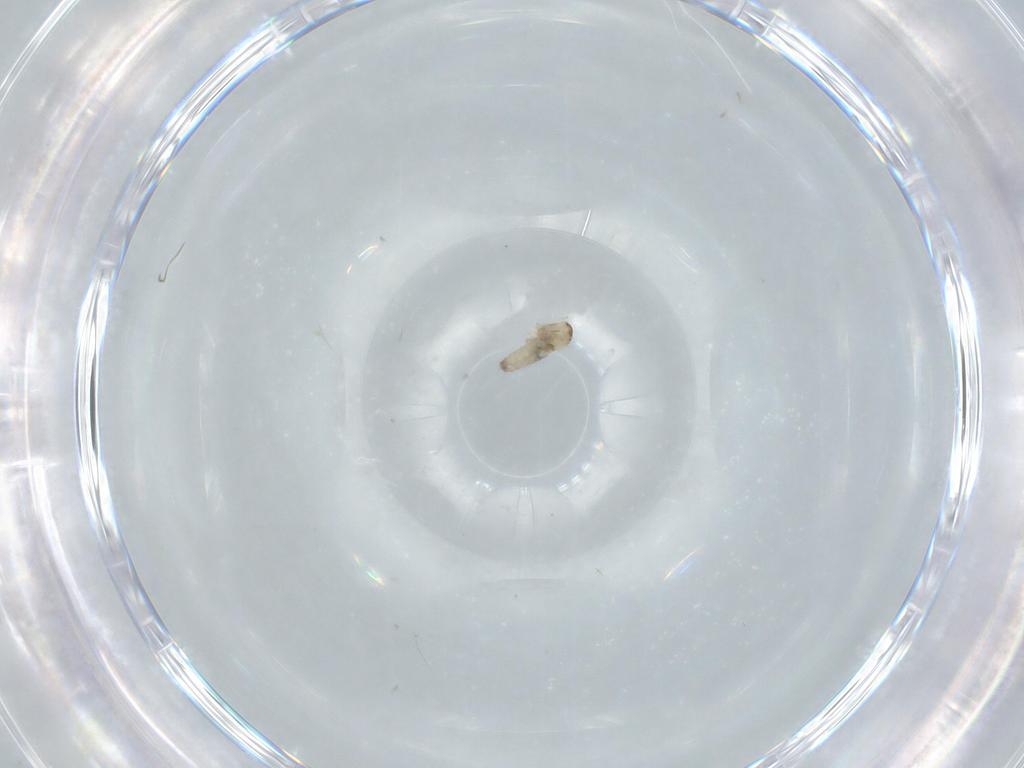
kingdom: Animalia
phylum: Arthropoda
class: Insecta
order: Diptera
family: Cecidomyiidae
